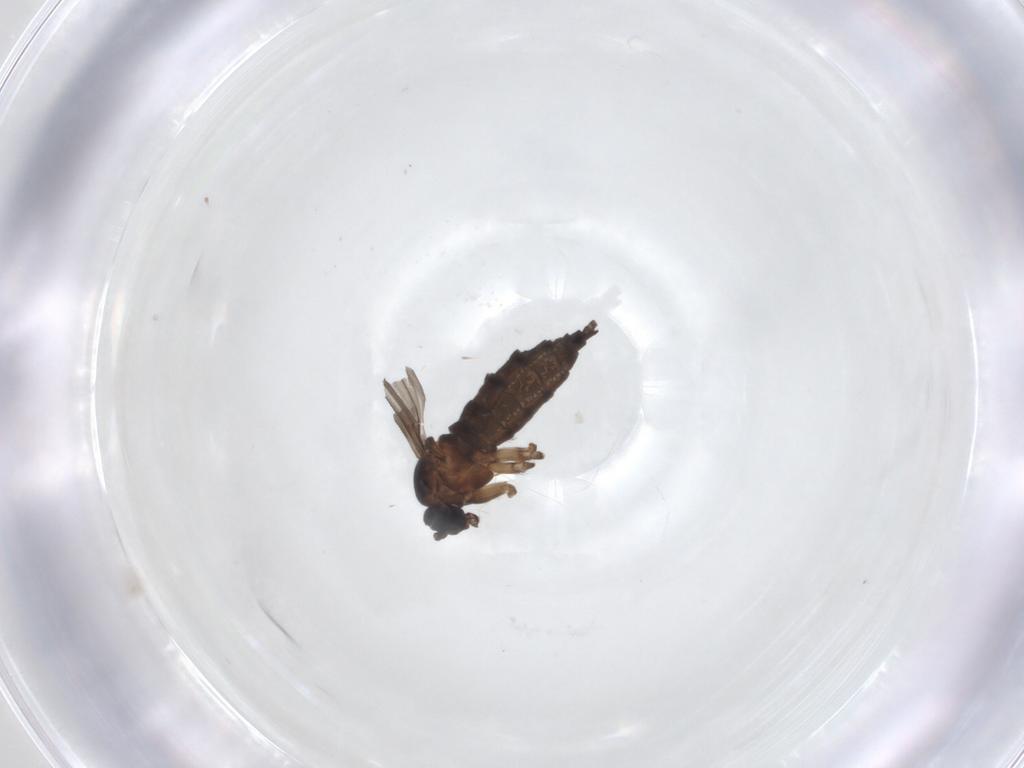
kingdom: Animalia
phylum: Arthropoda
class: Insecta
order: Diptera
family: Sciaridae
